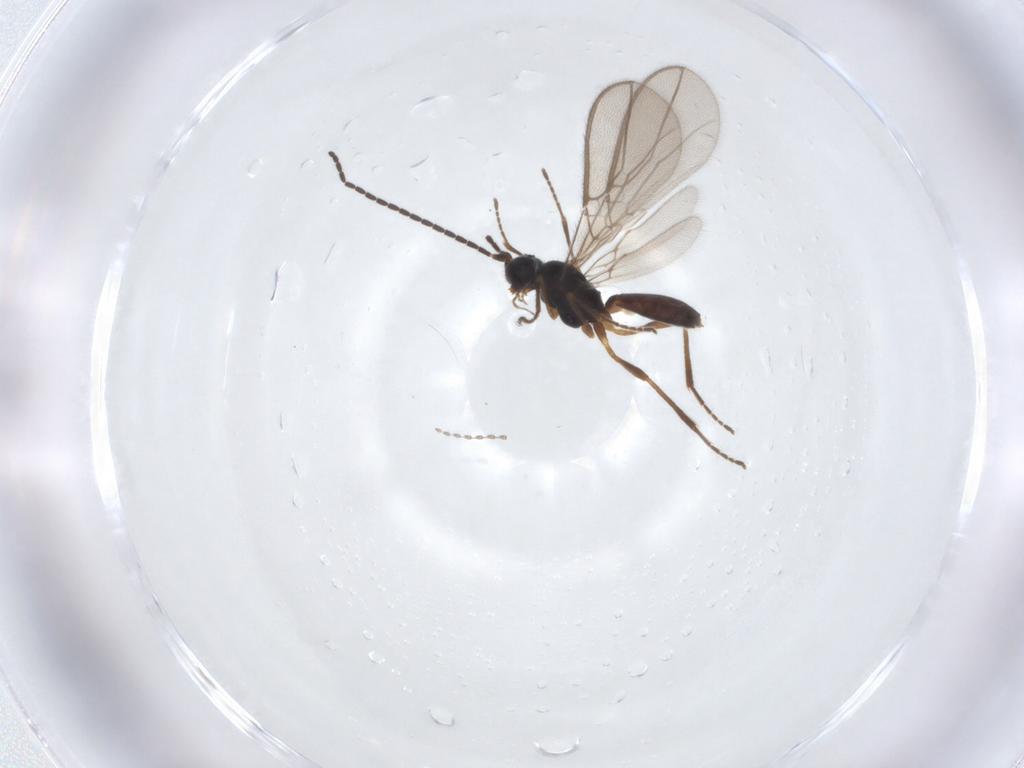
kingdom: Animalia
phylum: Arthropoda
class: Insecta
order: Hymenoptera
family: Braconidae
